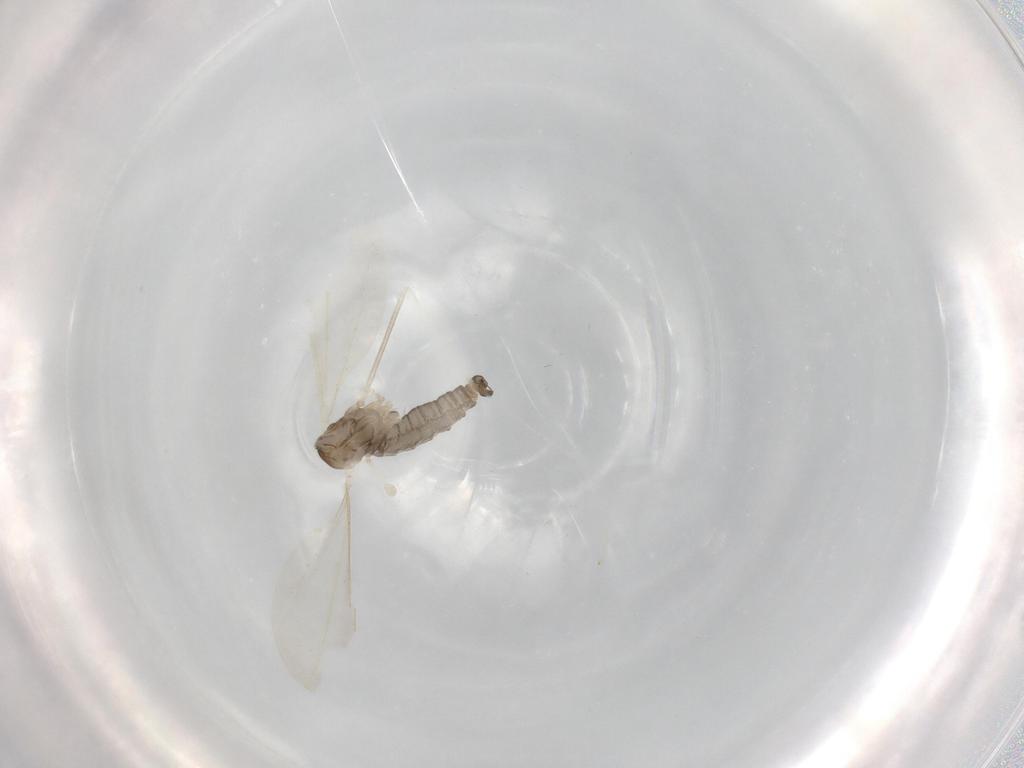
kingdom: Animalia
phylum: Arthropoda
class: Insecta
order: Diptera
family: Cecidomyiidae
